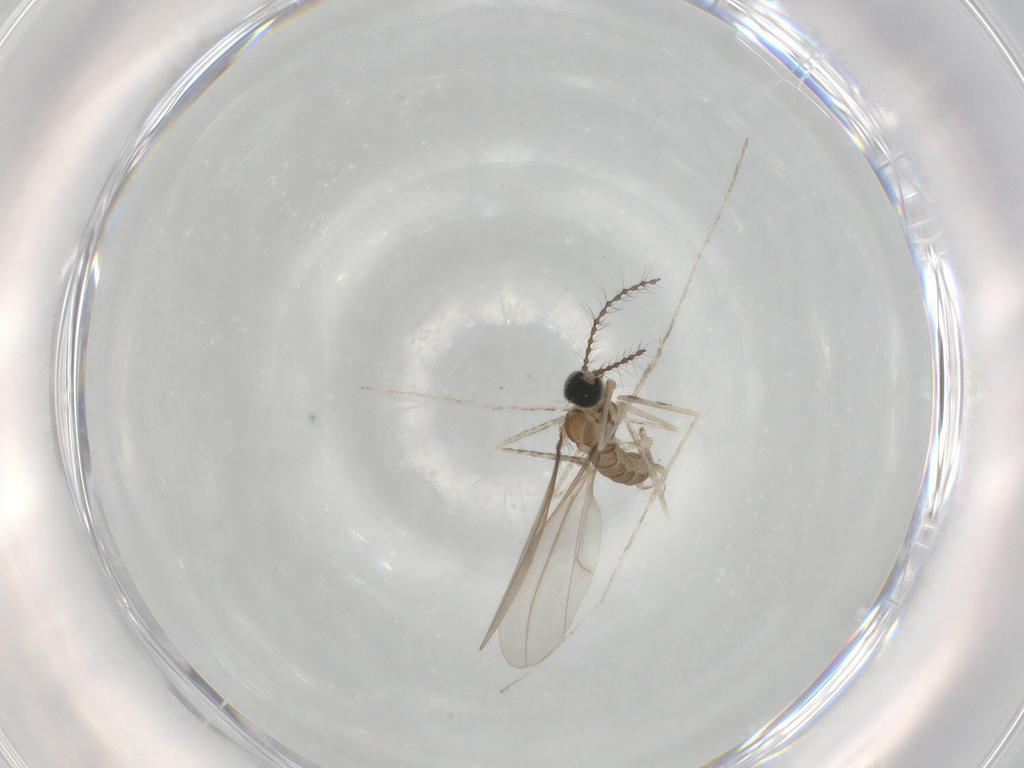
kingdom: Animalia
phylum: Arthropoda
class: Insecta
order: Diptera
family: Cecidomyiidae
